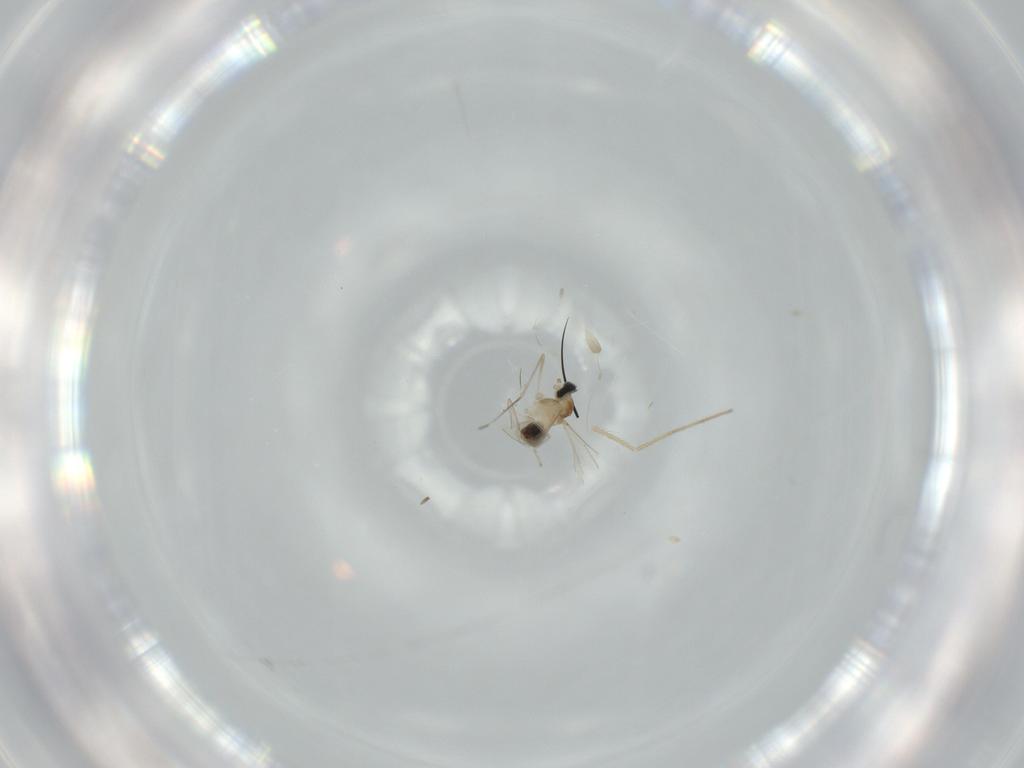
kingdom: Animalia
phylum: Arthropoda
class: Insecta
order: Diptera
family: Cecidomyiidae
